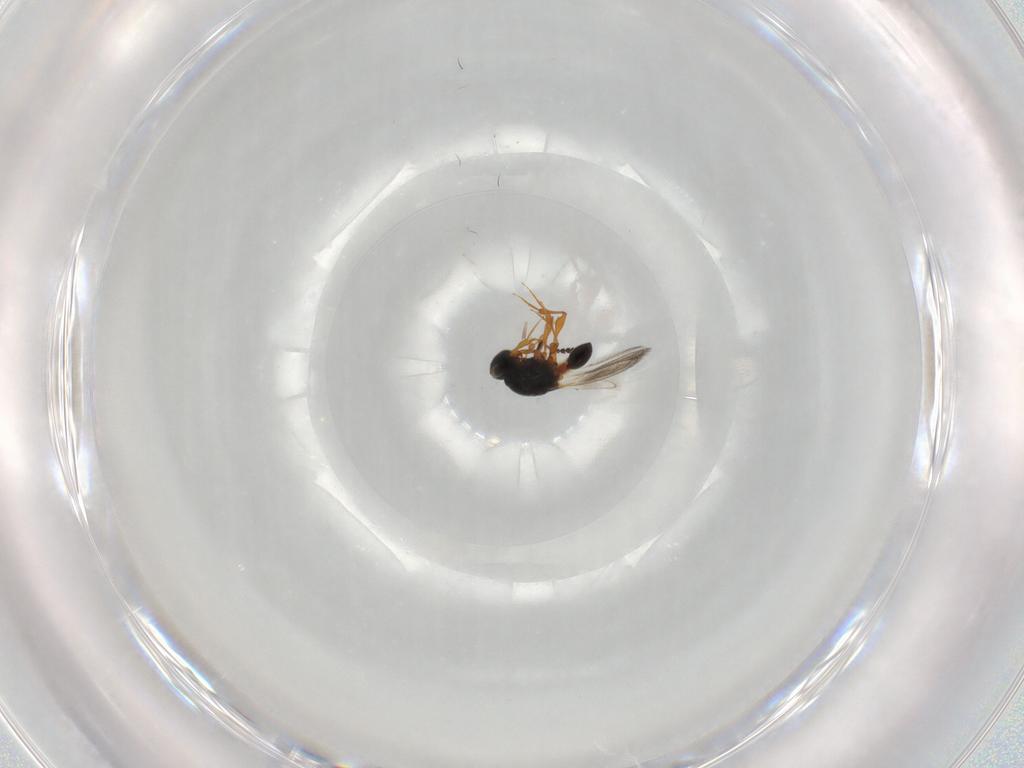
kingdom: Animalia
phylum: Arthropoda
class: Insecta
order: Hymenoptera
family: Platygastridae
